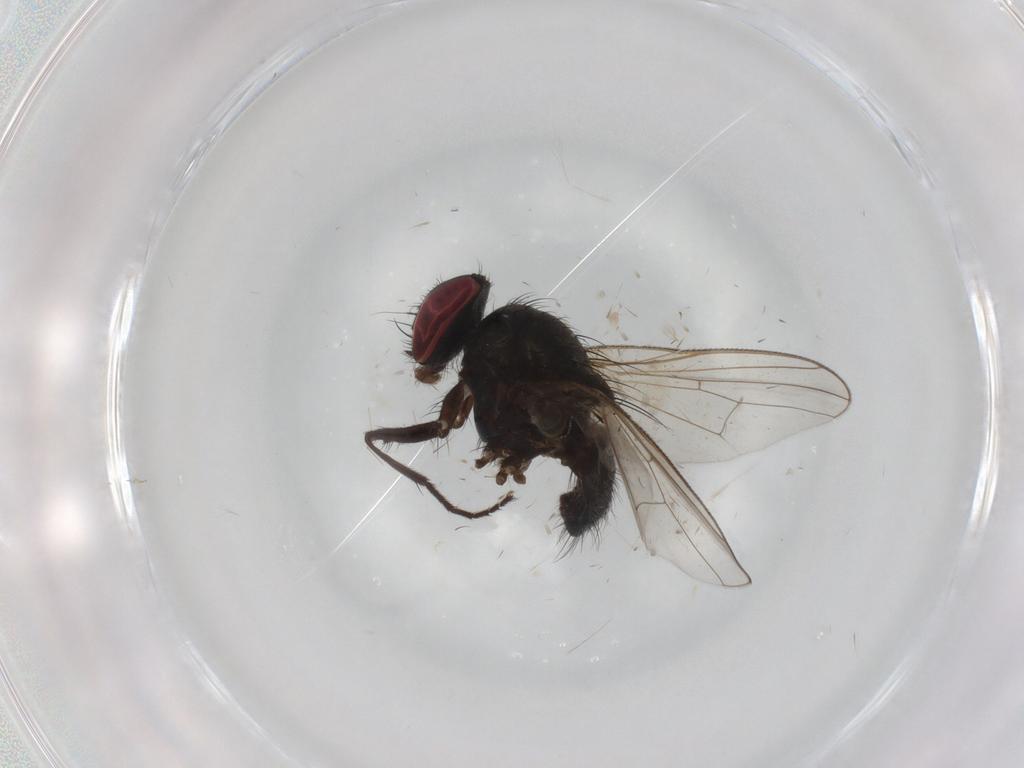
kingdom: Animalia
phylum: Arthropoda
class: Insecta
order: Diptera
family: Muscidae
